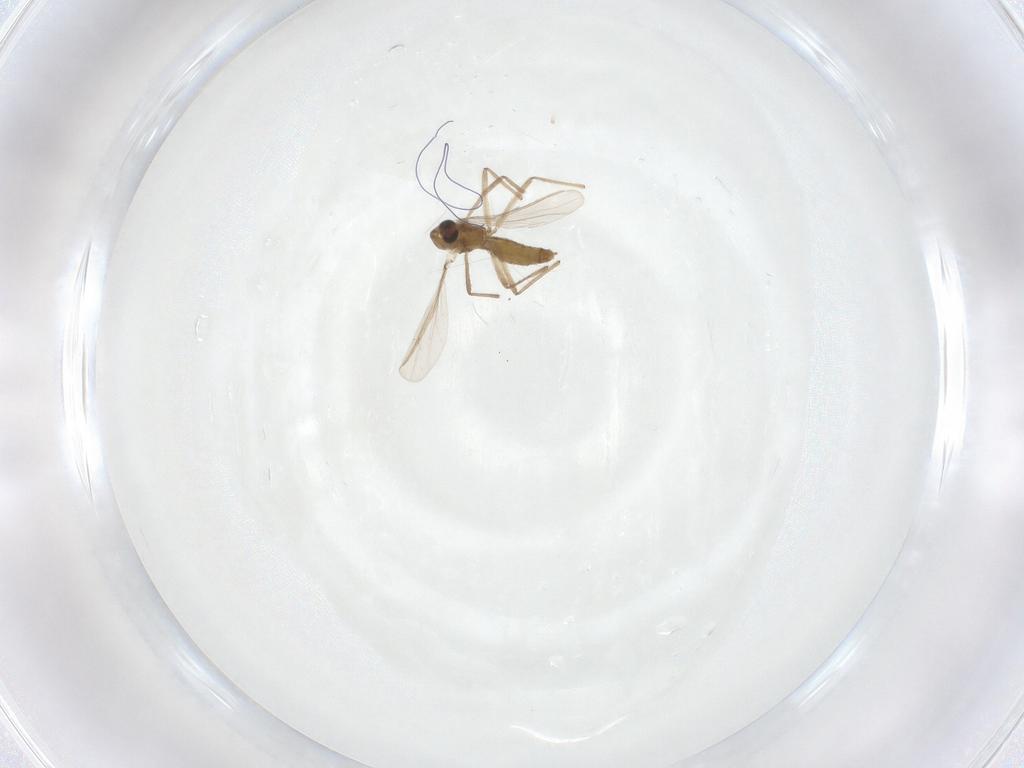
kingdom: Animalia
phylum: Arthropoda
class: Insecta
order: Diptera
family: Chironomidae
